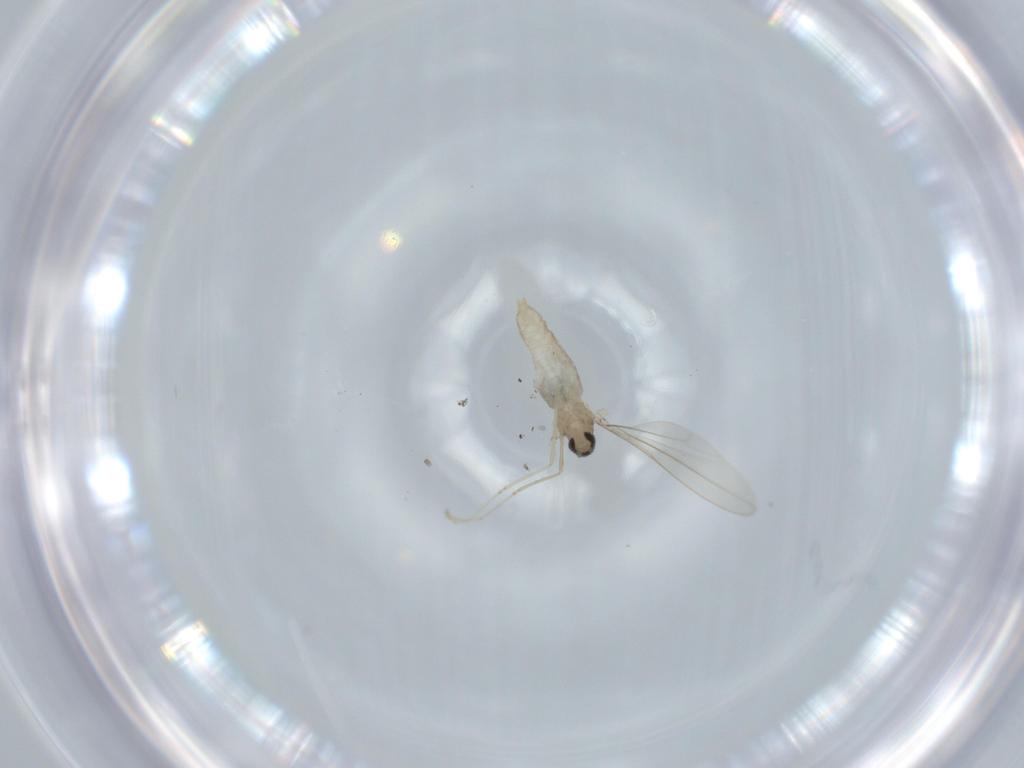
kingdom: Animalia
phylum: Arthropoda
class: Insecta
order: Diptera
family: Cecidomyiidae
